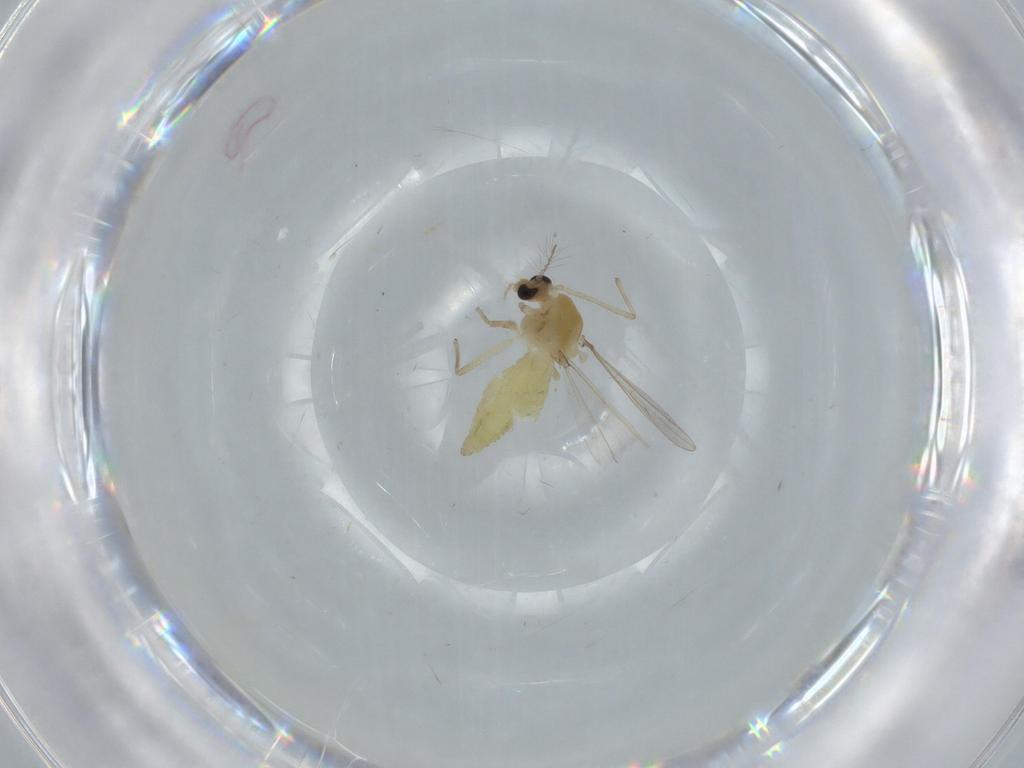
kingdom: Animalia
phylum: Arthropoda
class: Insecta
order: Diptera
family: Chironomidae
